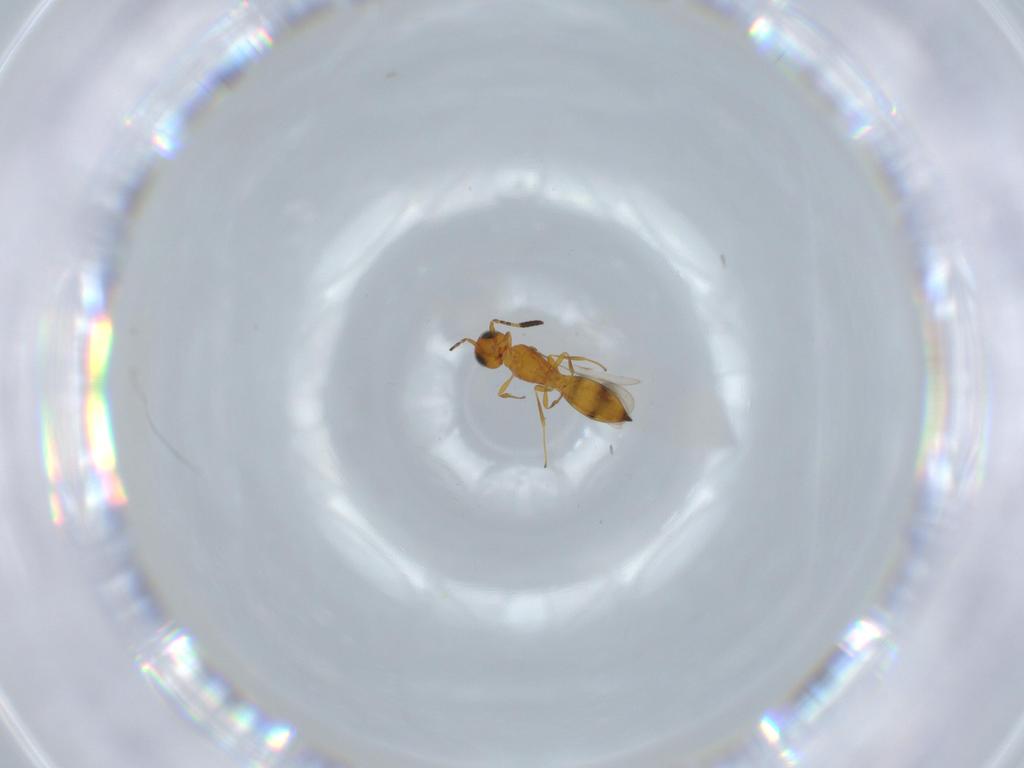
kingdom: Animalia
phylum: Arthropoda
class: Insecta
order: Hymenoptera
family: Scelionidae
